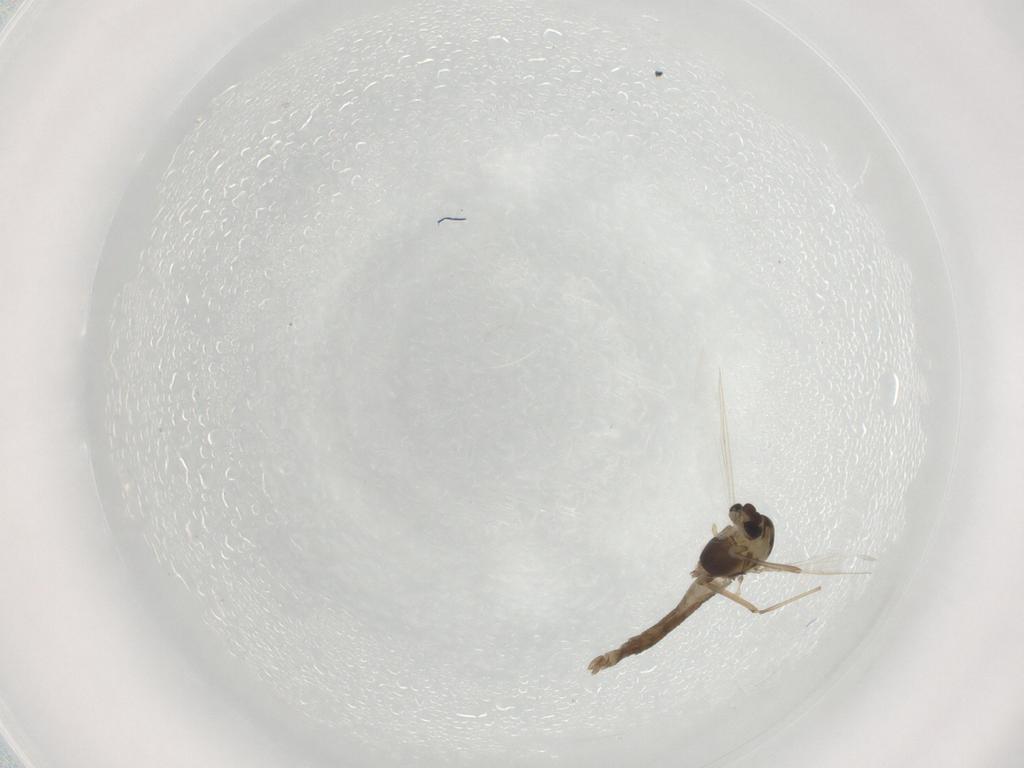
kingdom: Animalia
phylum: Arthropoda
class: Insecta
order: Diptera
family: Chironomidae
